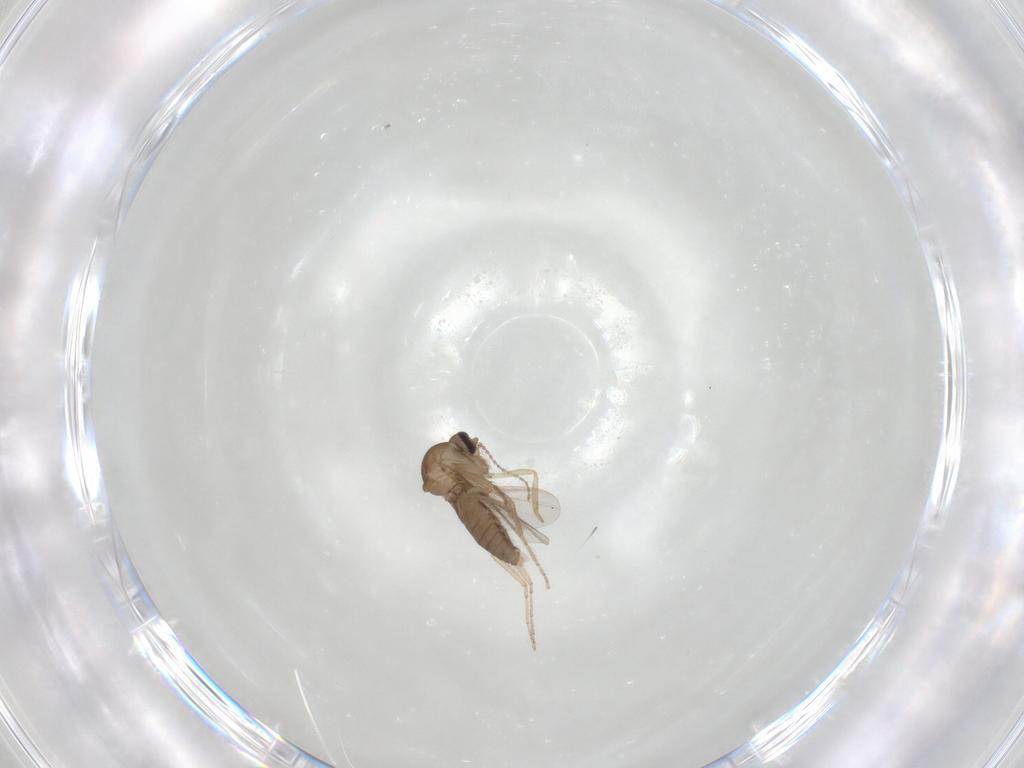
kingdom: Animalia
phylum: Arthropoda
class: Insecta
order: Diptera
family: Ceratopogonidae
